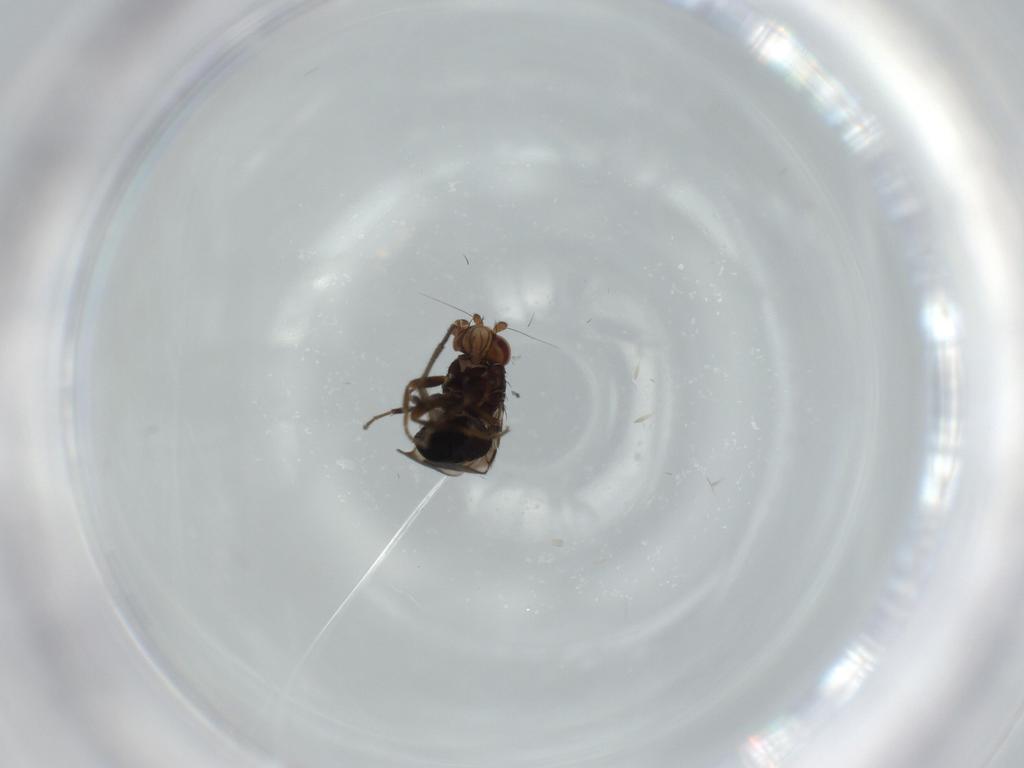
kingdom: Animalia
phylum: Arthropoda
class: Insecta
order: Diptera
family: Sphaeroceridae
